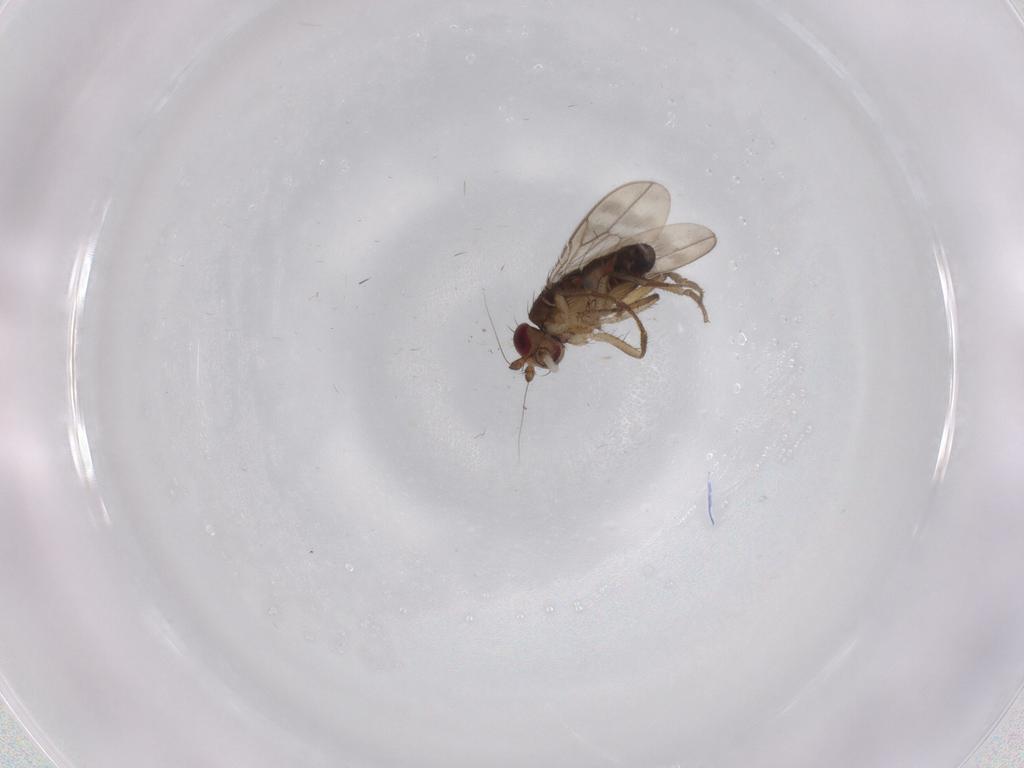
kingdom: Animalia
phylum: Arthropoda
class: Insecta
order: Diptera
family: Sphaeroceridae
